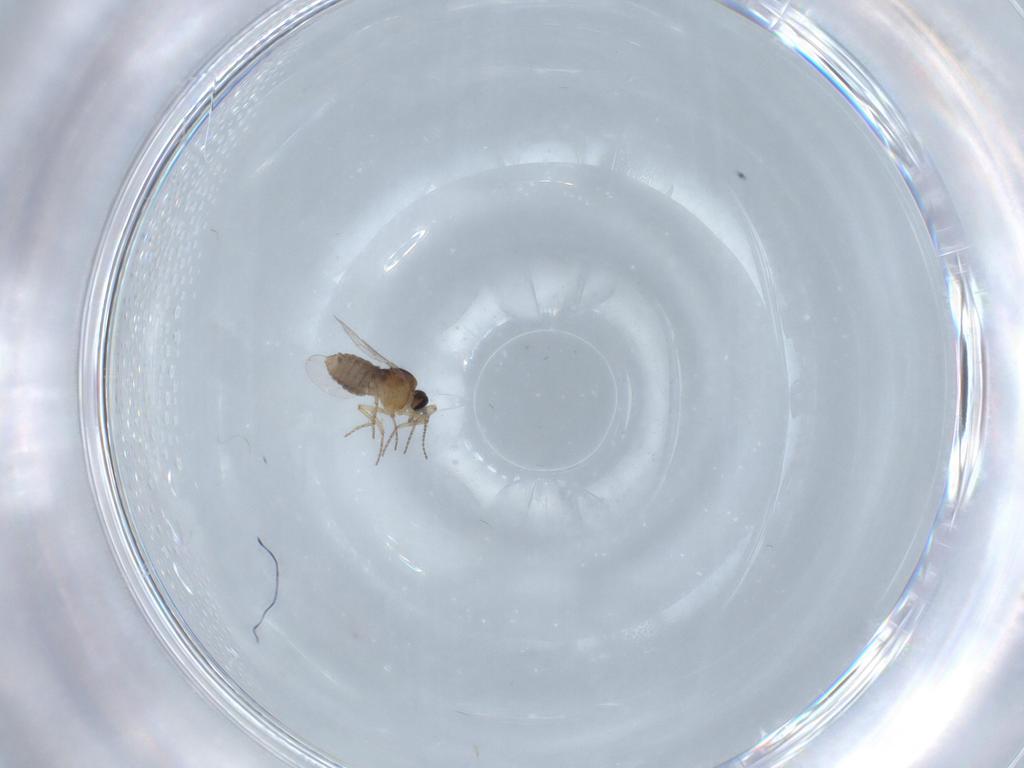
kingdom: Animalia
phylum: Arthropoda
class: Insecta
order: Diptera
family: Ceratopogonidae
